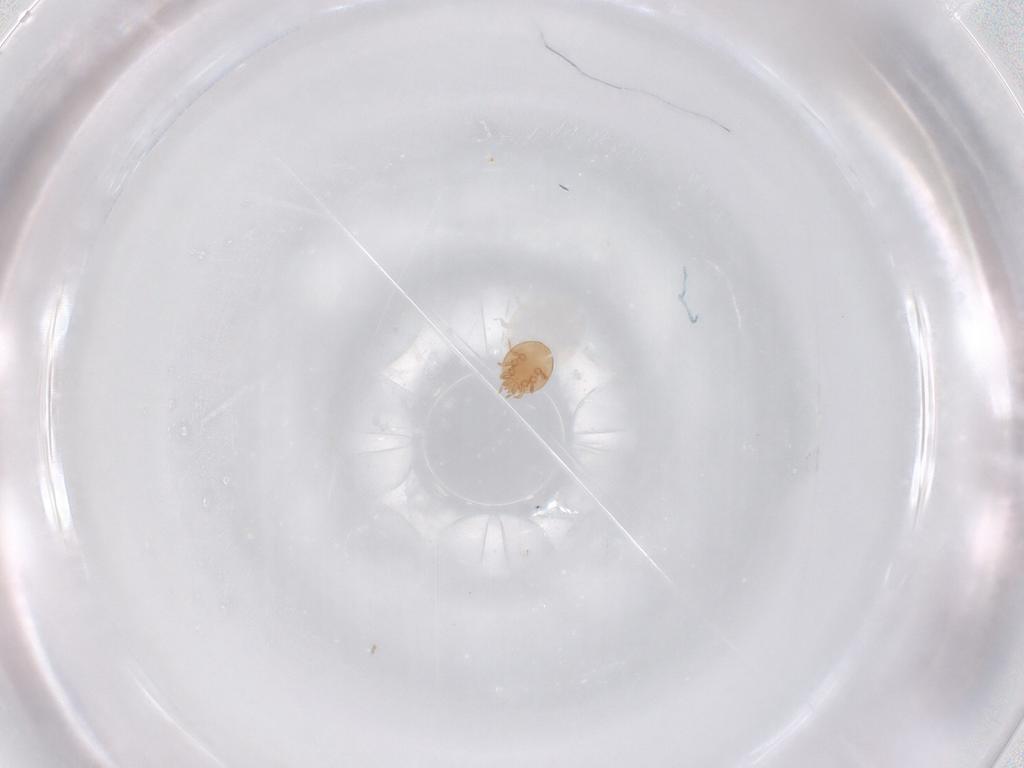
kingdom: Animalia
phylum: Arthropoda
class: Arachnida
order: Mesostigmata
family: Trematuridae
